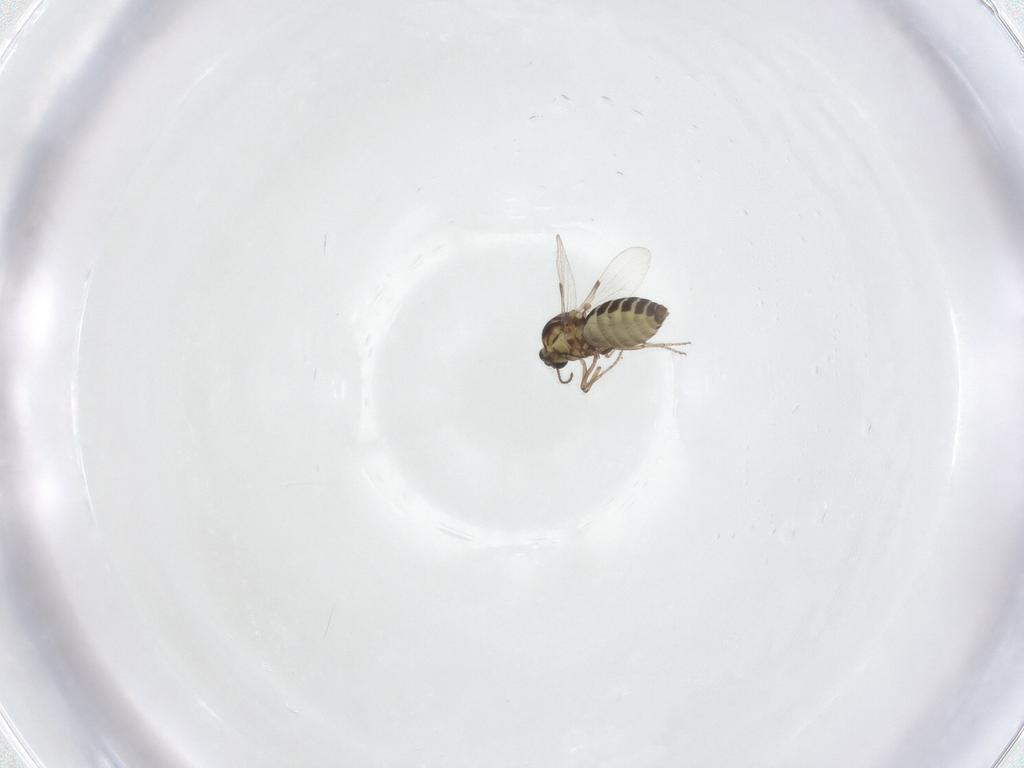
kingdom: Animalia
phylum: Arthropoda
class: Insecta
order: Diptera
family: Ceratopogonidae
